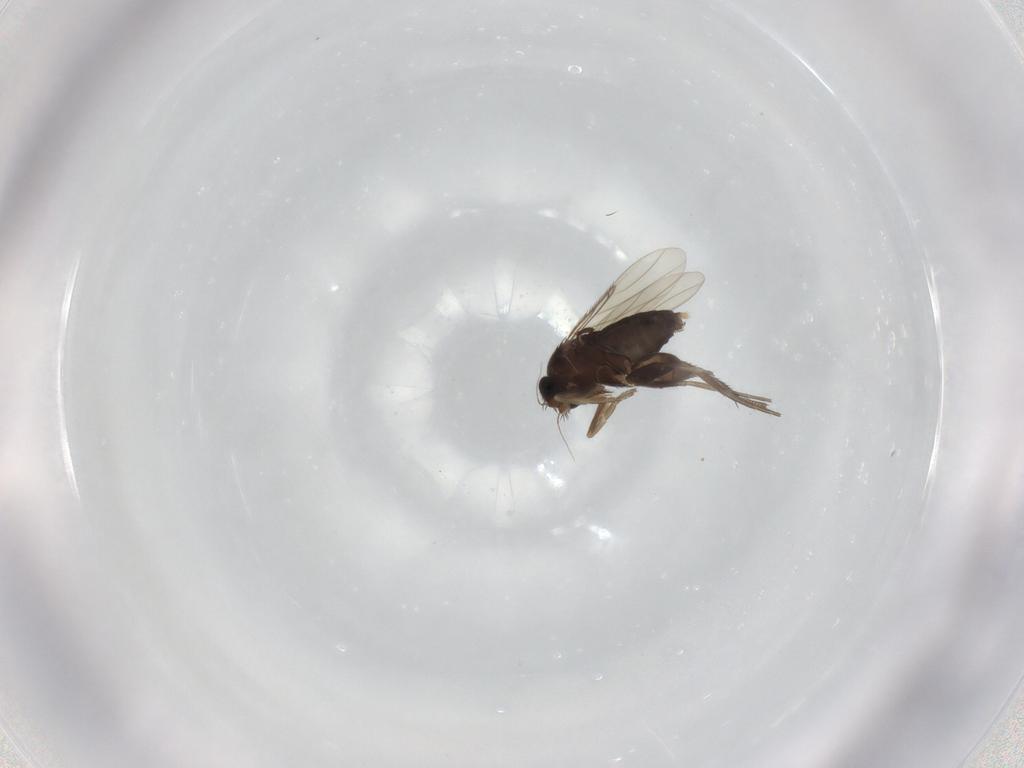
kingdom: Animalia
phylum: Arthropoda
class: Insecta
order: Diptera
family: Phoridae
